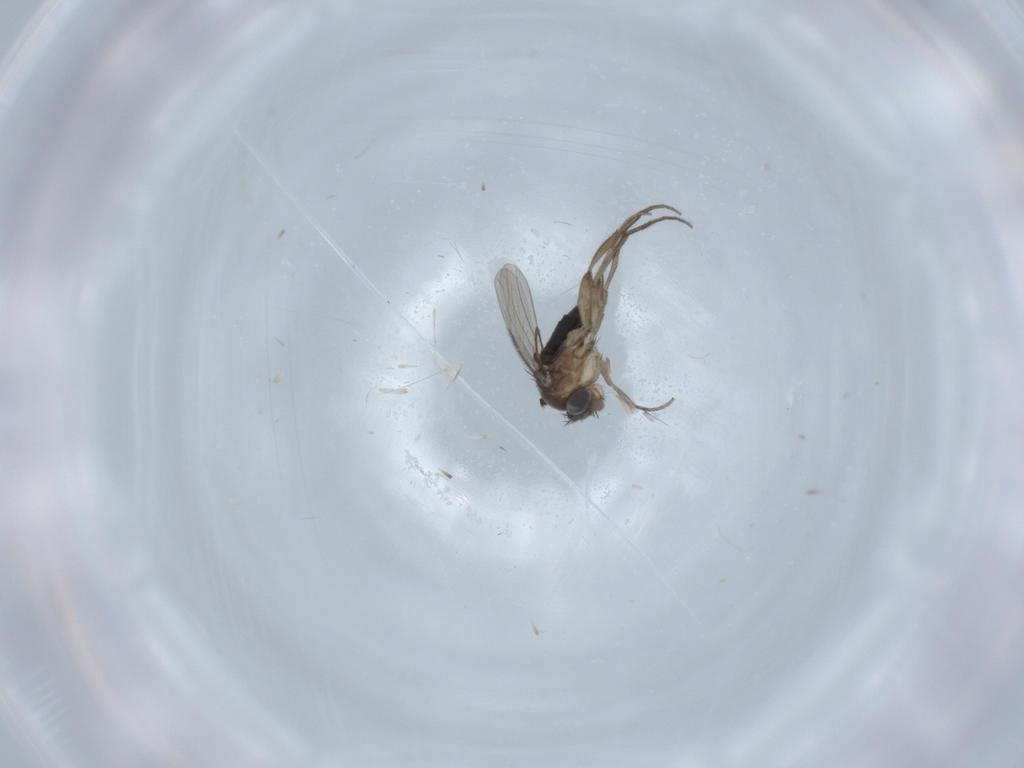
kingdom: Animalia
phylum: Arthropoda
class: Insecta
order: Diptera
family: Phoridae
